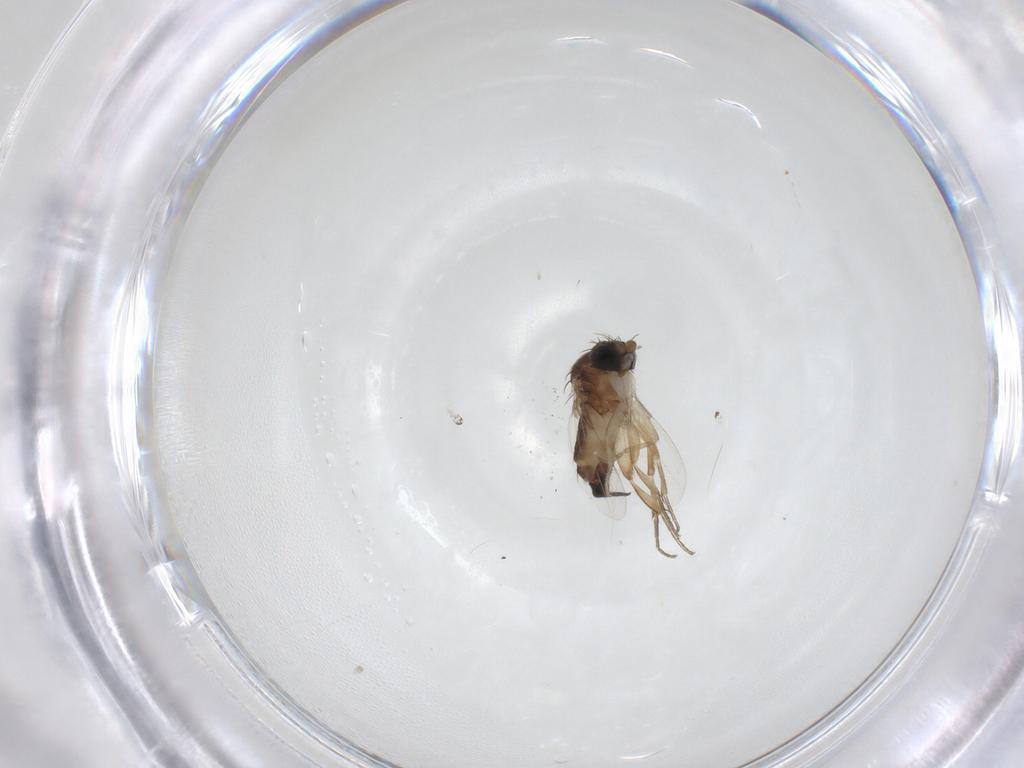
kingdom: Animalia
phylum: Arthropoda
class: Insecta
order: Diptera
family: Phoridae
